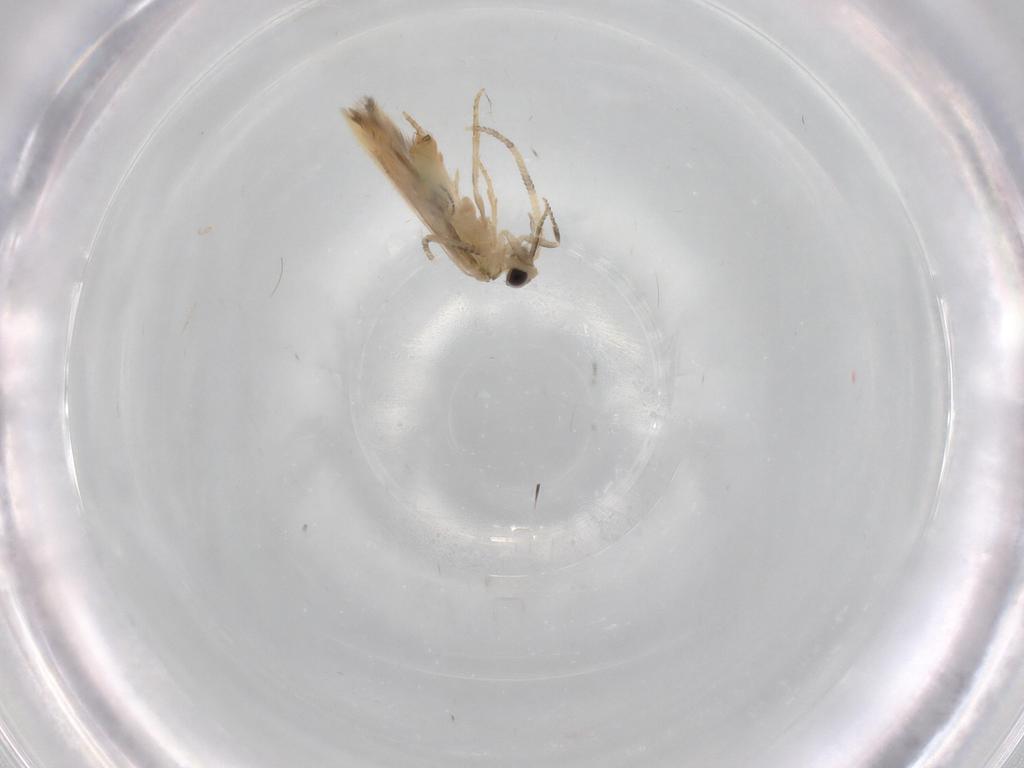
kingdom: Animalia
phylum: Arthropoda
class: Insecta
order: Trichoptera
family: Hydroptilidae
